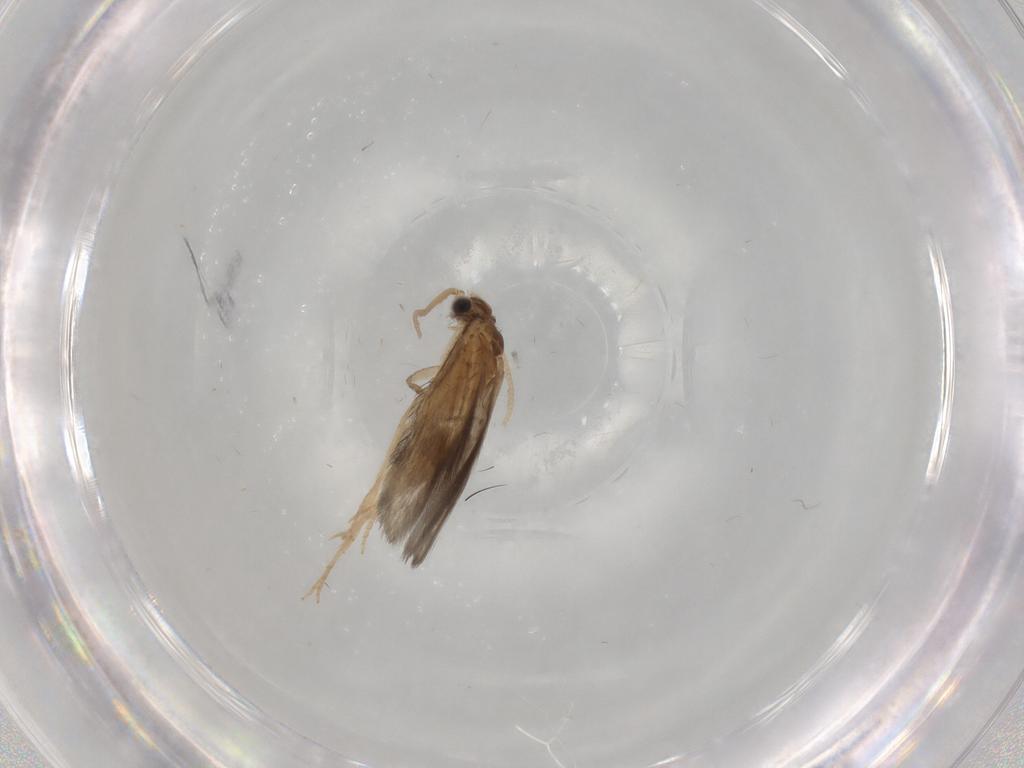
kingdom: Animalia
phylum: Arthropoda
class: Insecta
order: Trichoptera
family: Hydroptilidae
